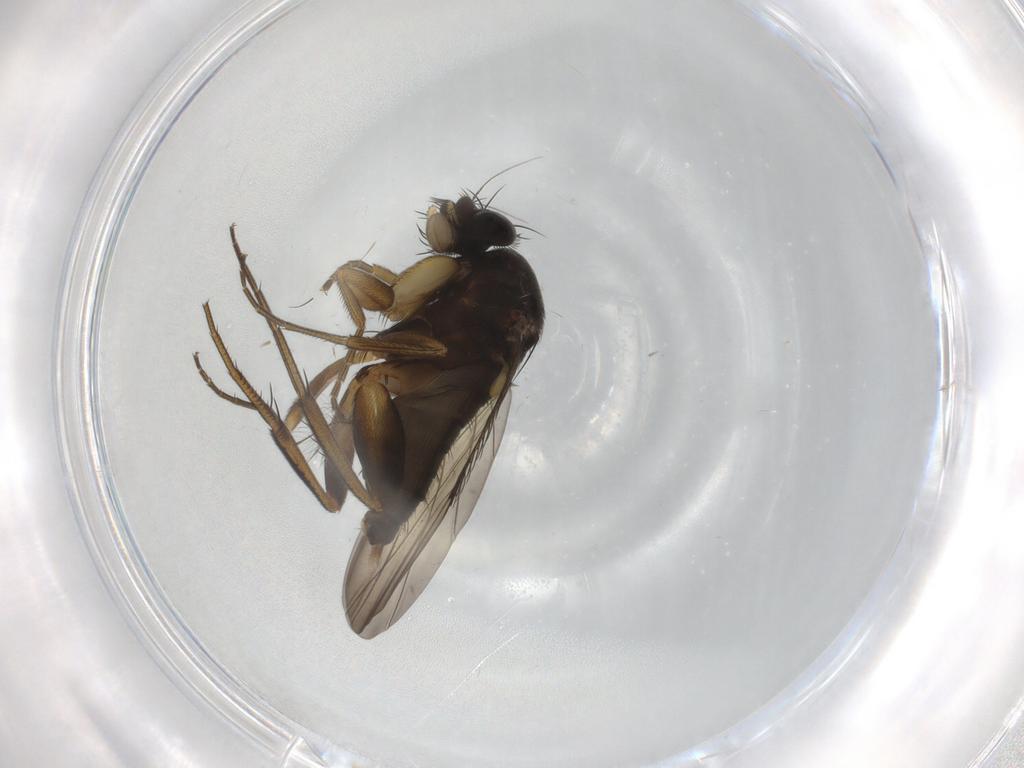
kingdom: Animalia
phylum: Arthropoda
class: Insecta
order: Diptera
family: Phoridae
